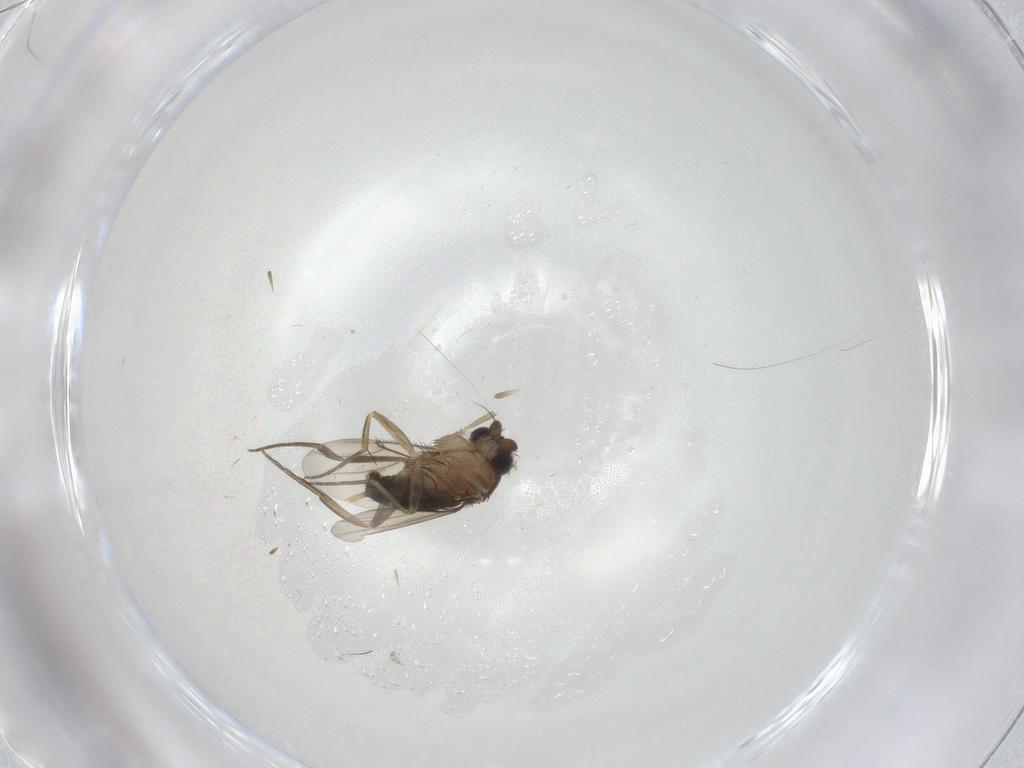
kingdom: Animalia
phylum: Arthropoda
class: Insecta
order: Diptera
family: Phoridae
